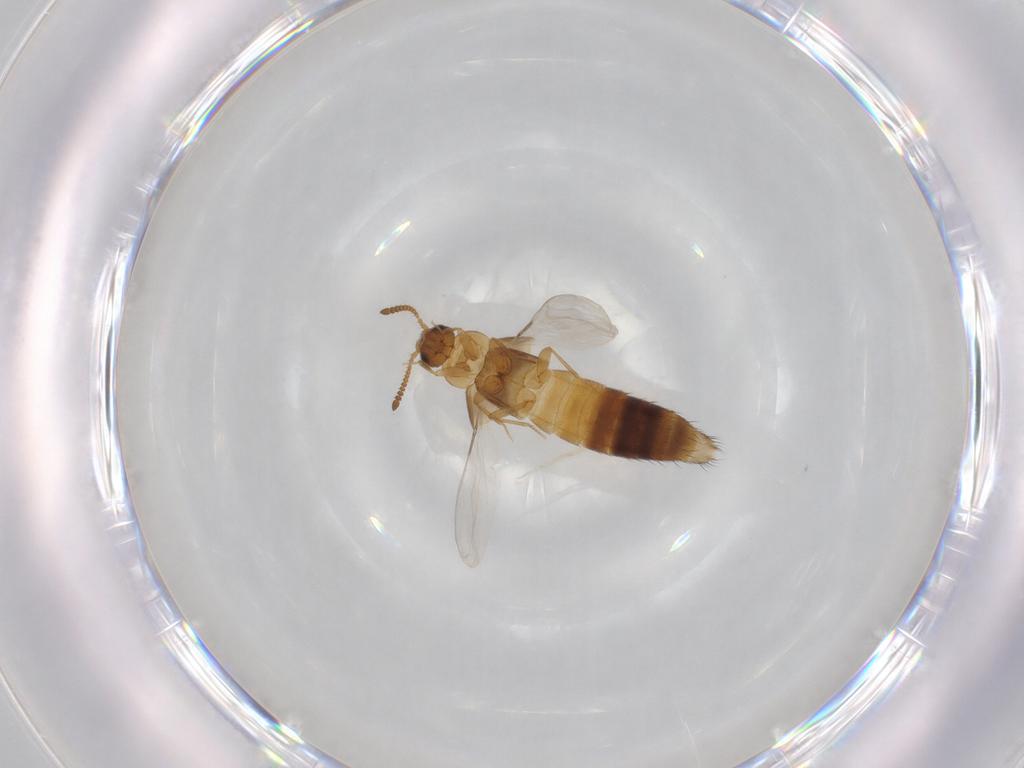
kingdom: Animalia
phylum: Arthropoda
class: Insecta
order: Coleoptera
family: Staphylinidae
